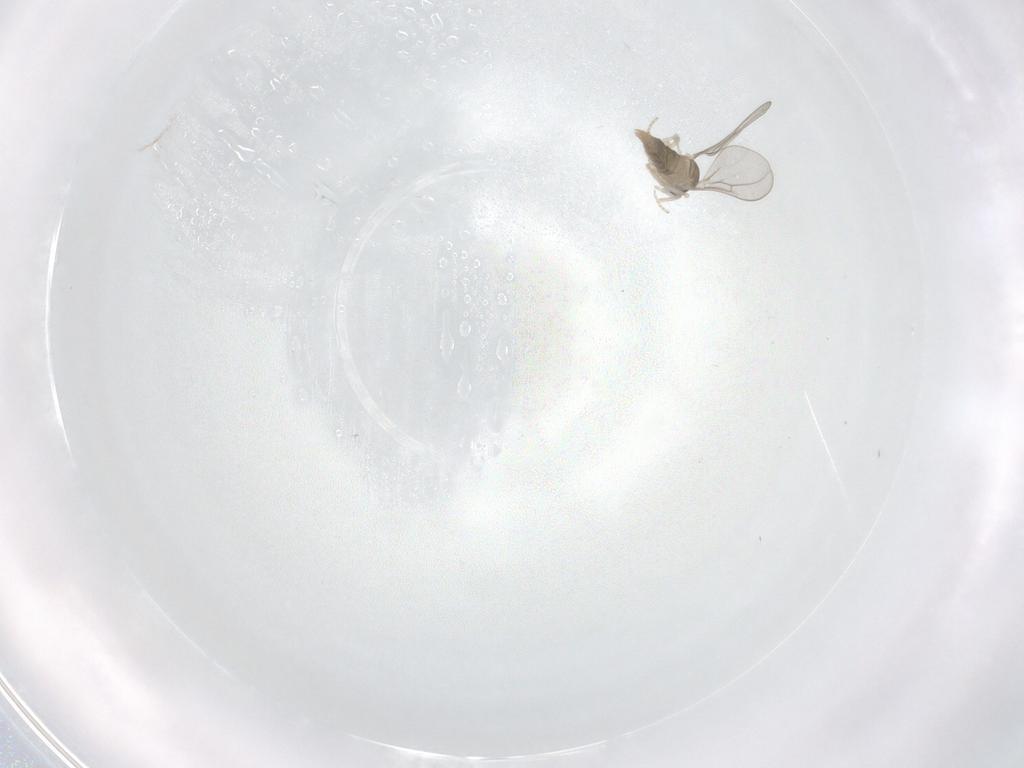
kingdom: Animalia
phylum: Arthropoda
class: Insecta
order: Diptera
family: Cecidomyiidae
